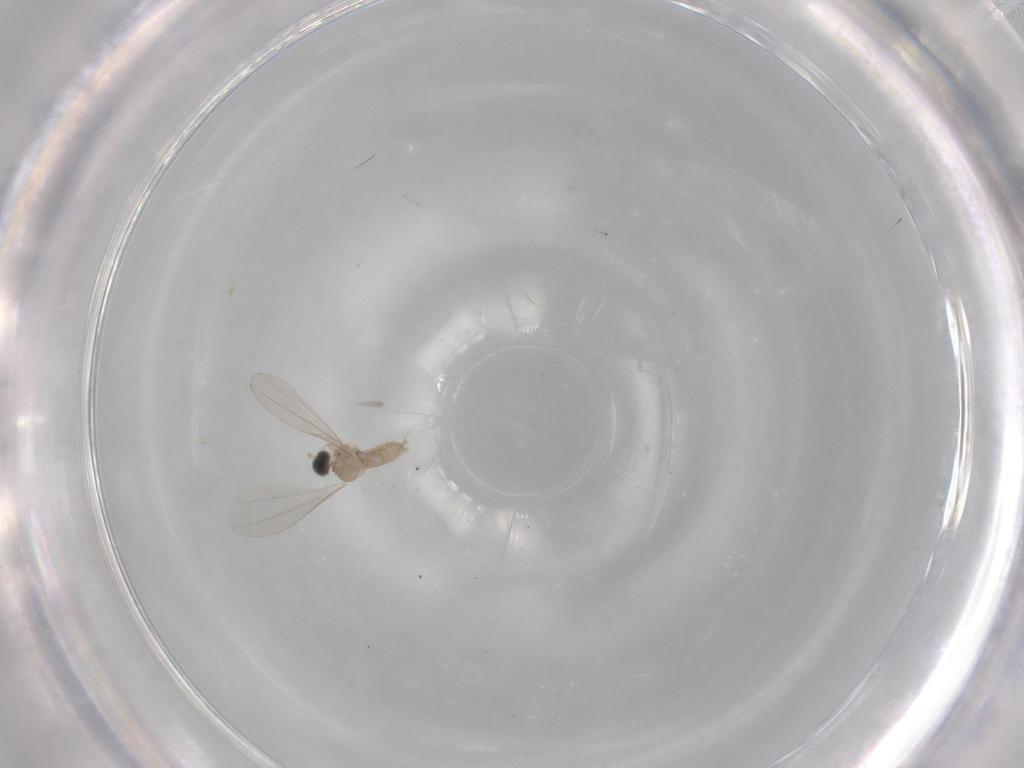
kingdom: Animalia
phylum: Arthropoda
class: Insecta
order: Diptera
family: Cecidomyiidae
